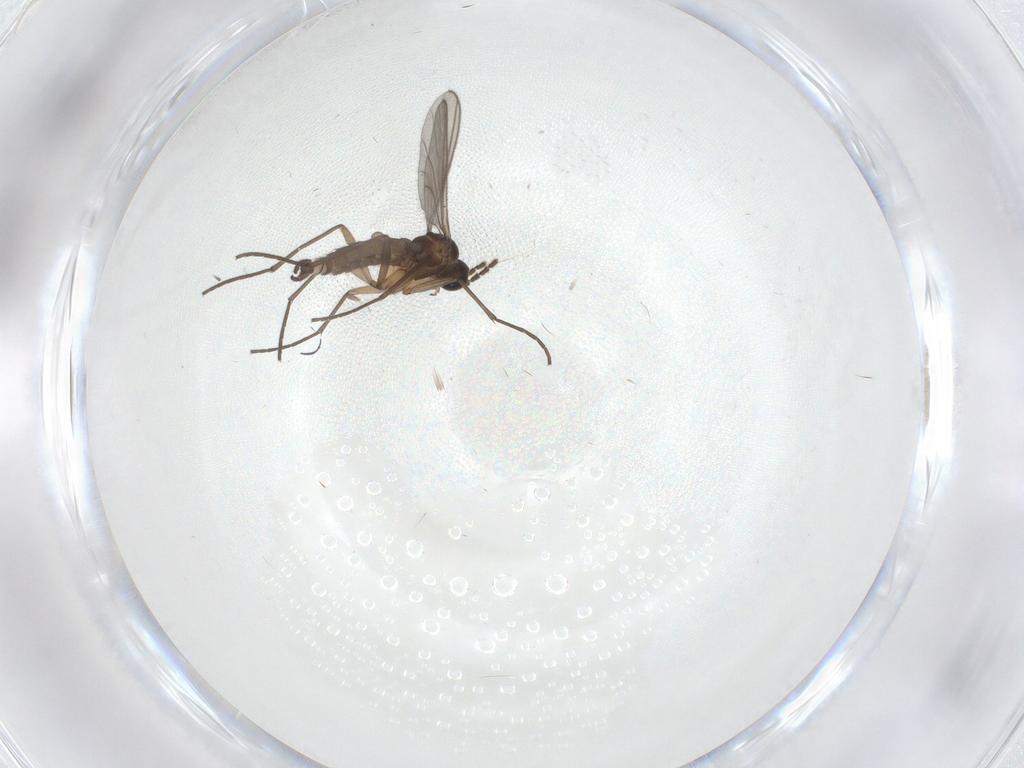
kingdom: Animalia
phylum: Arthropoda
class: Insecta
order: Diptera
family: Sciaridae
